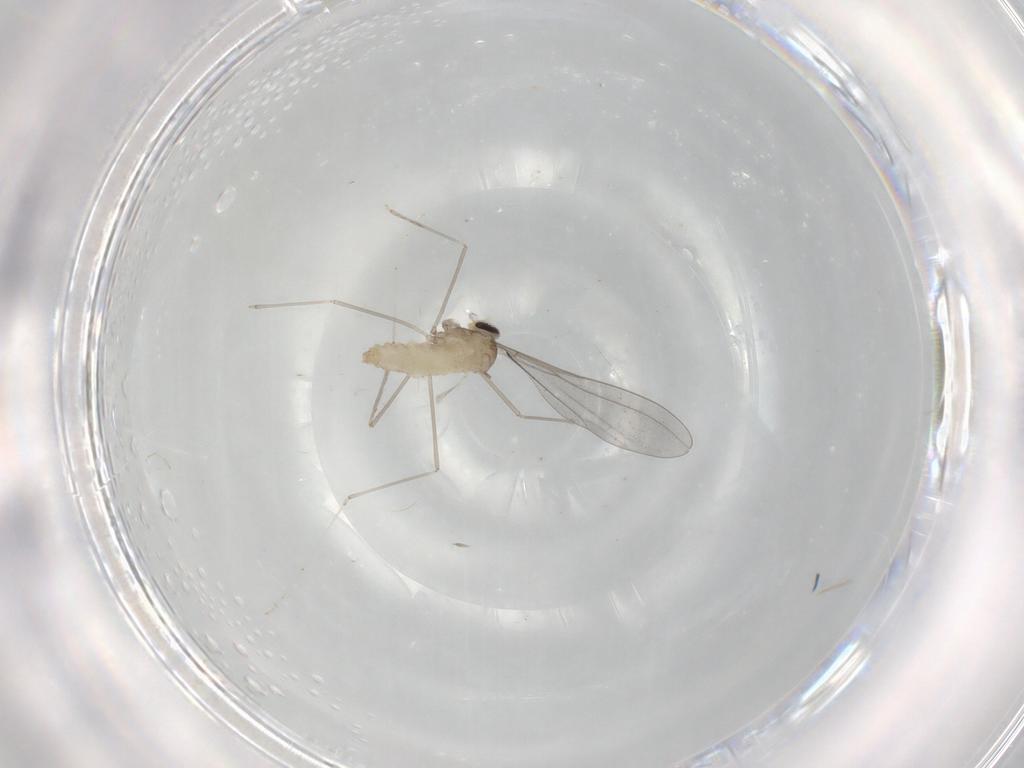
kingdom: Animalia
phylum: Arthropoda
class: Insecta
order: Diptera
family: Cecidomyiidae
